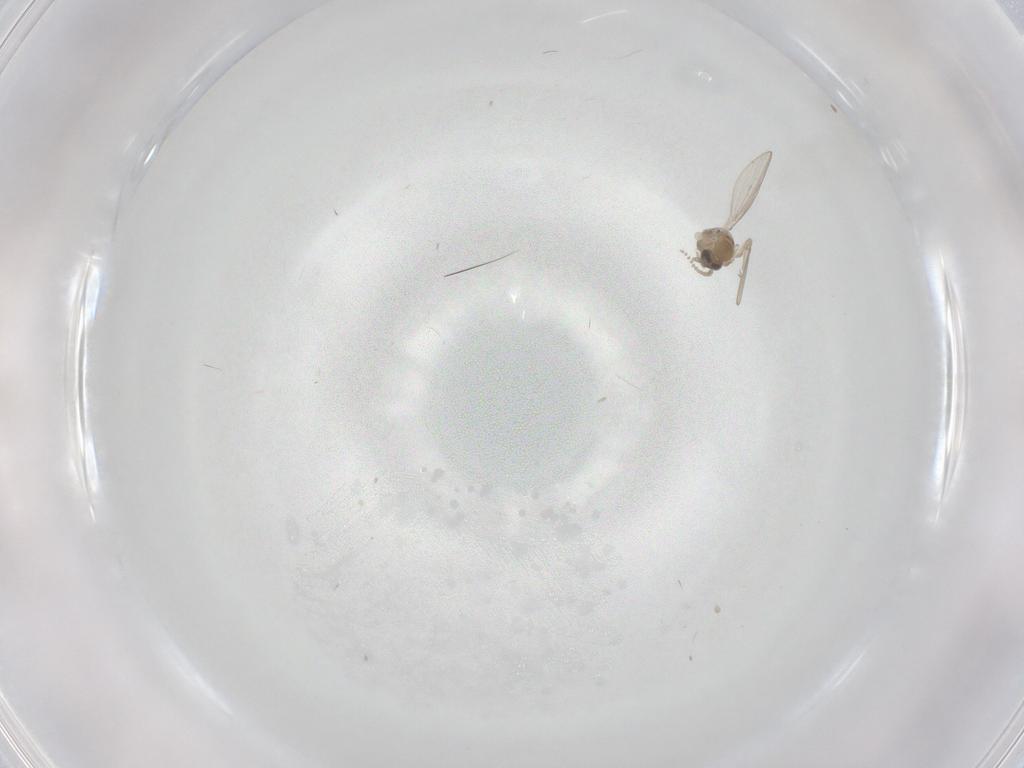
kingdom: Animalia
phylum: Arthropoda
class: Insecta
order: Diptera
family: Psychodidae
